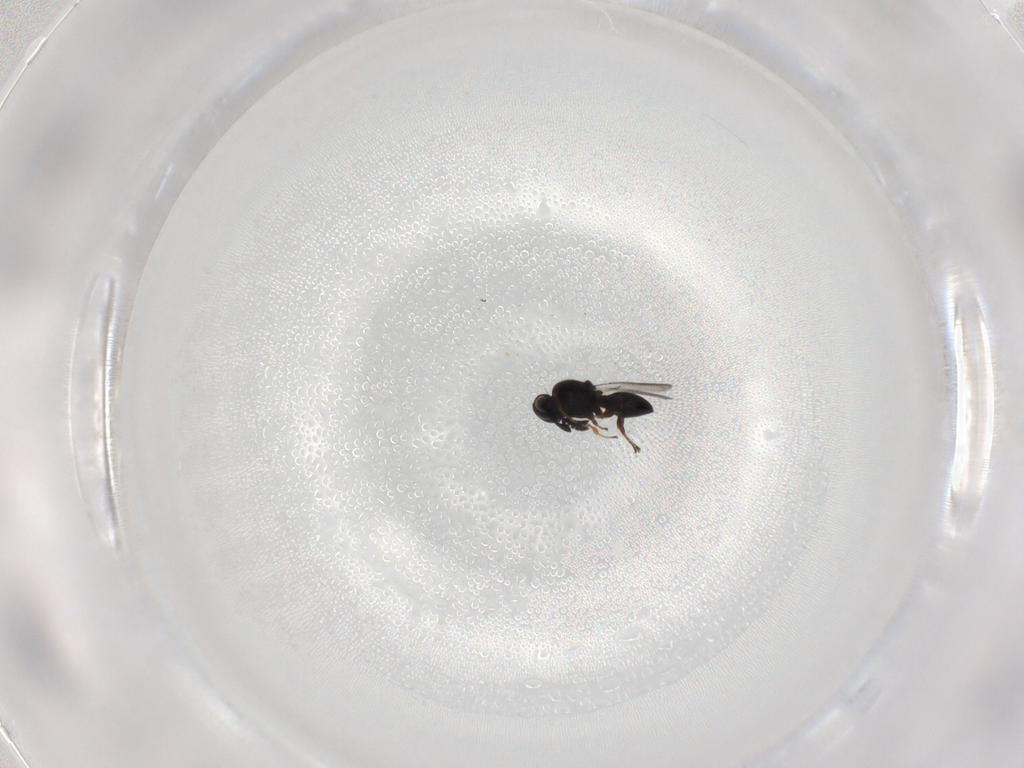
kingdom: Animalia
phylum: Arthropoda
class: Insecta
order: Hymenoptera
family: Platygastridae
